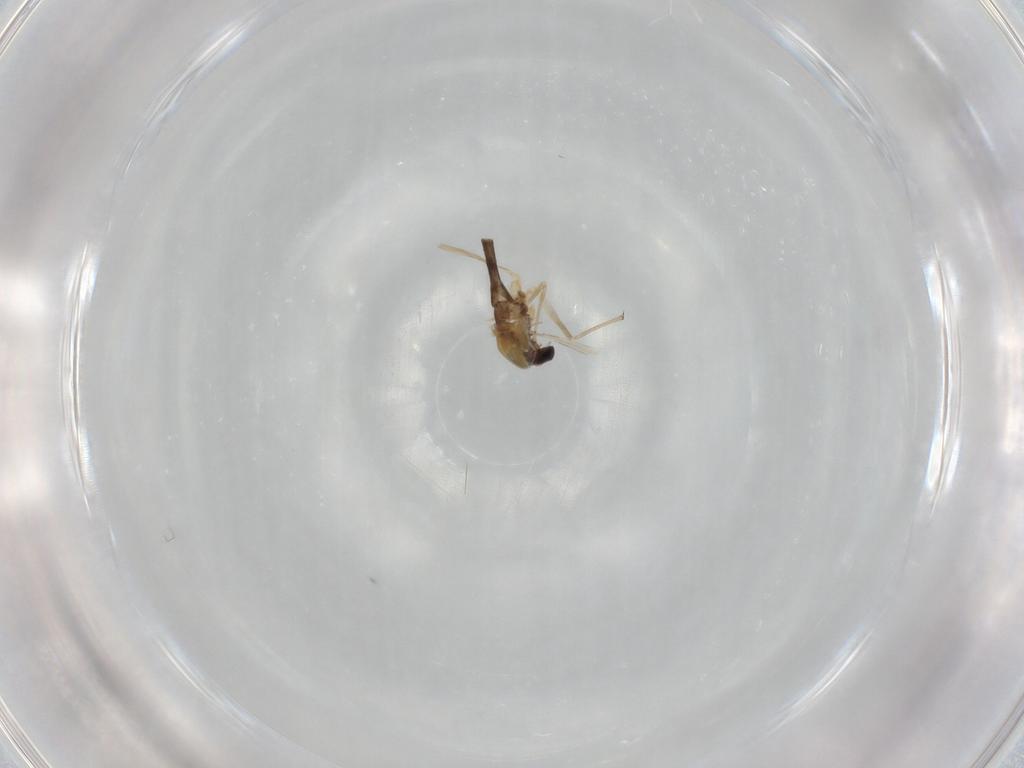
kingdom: Animalia
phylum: Arthropoda
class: Insecta
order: Diptera
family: Chironomidae
